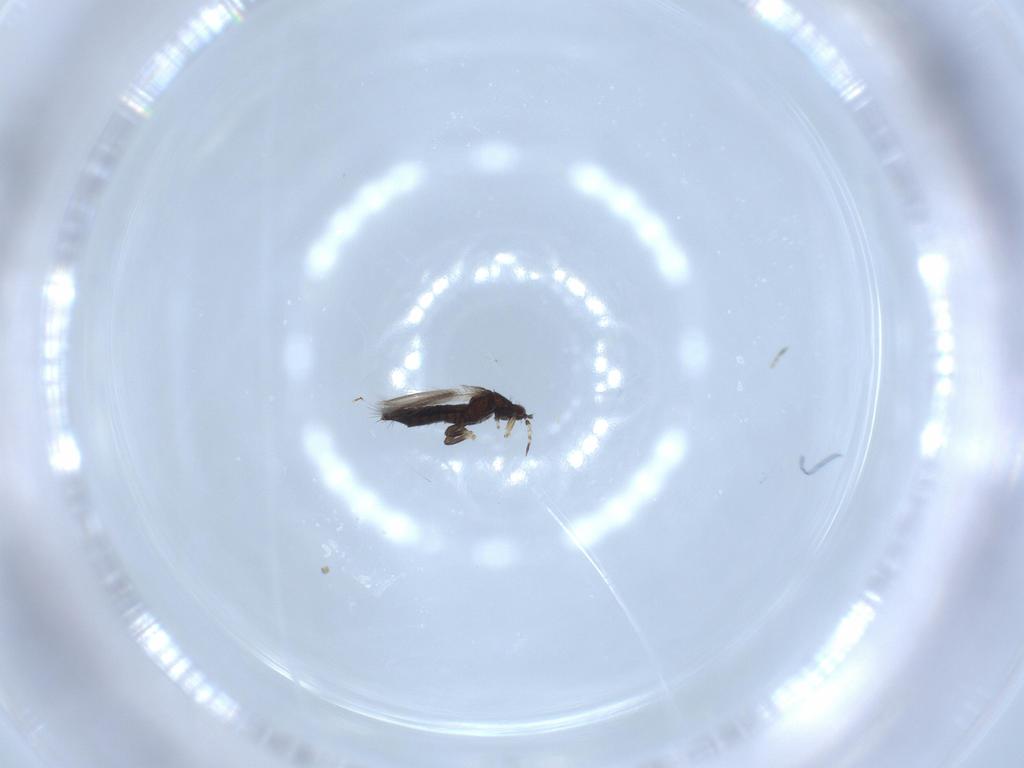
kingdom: Animalia
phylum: Arthropoda
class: Insecta
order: Thysanoptera
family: Thripidae
